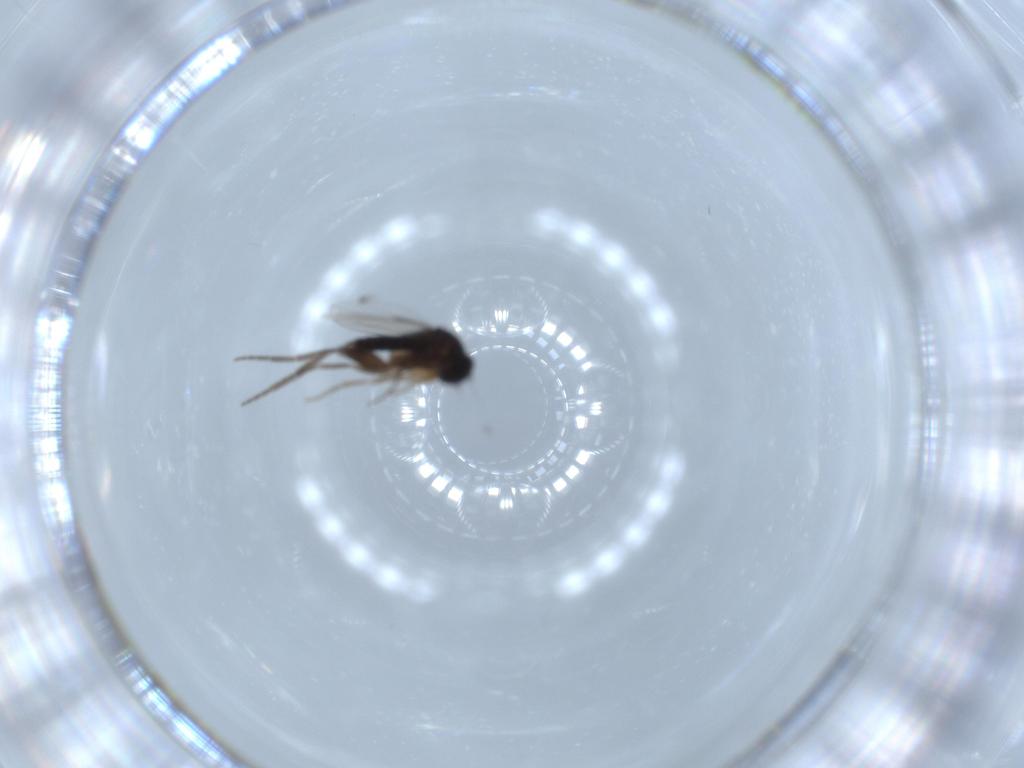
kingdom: Animalia
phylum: Arthropoda
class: Insecta
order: Diptera
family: Phoridae
